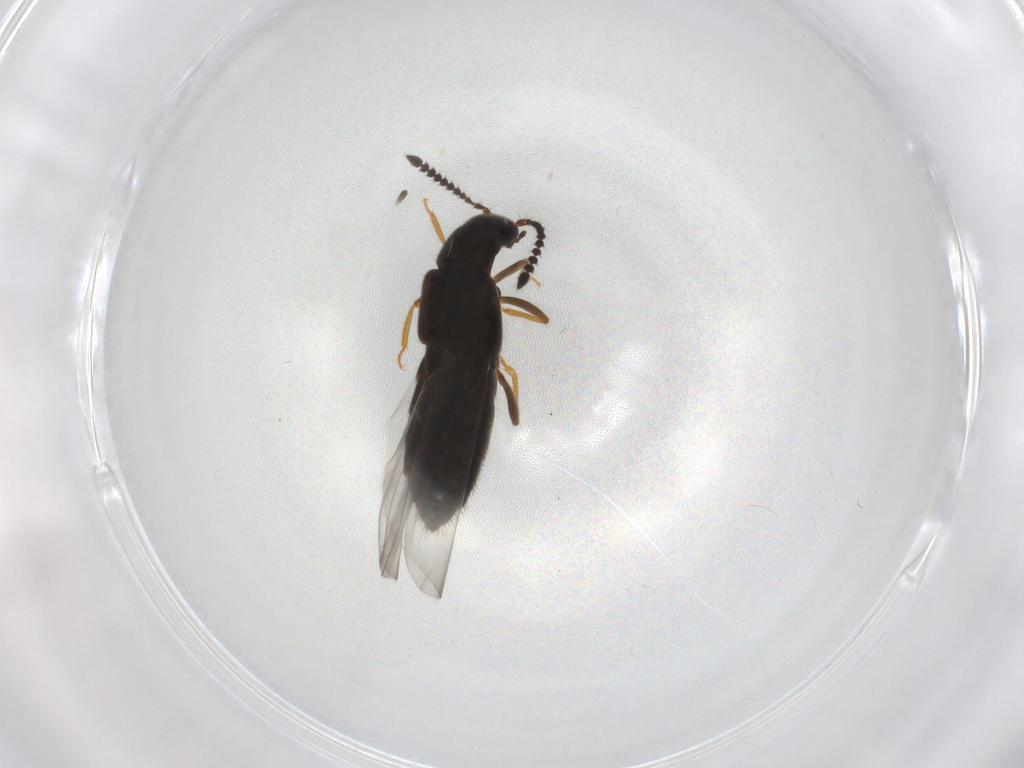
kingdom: Animalia
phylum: Arthropoda
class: Insecta
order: Coleoptera
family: Staphylinidae
